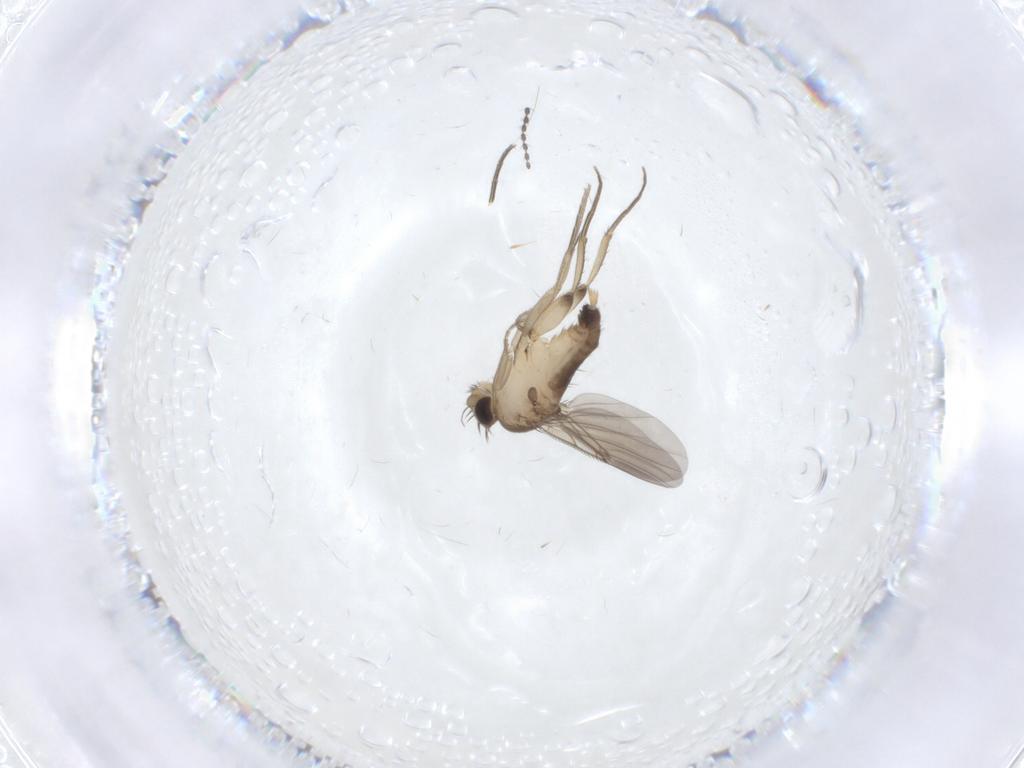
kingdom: Animalia
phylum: Arthropoda
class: Insecta
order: Diptera
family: Phoridae
